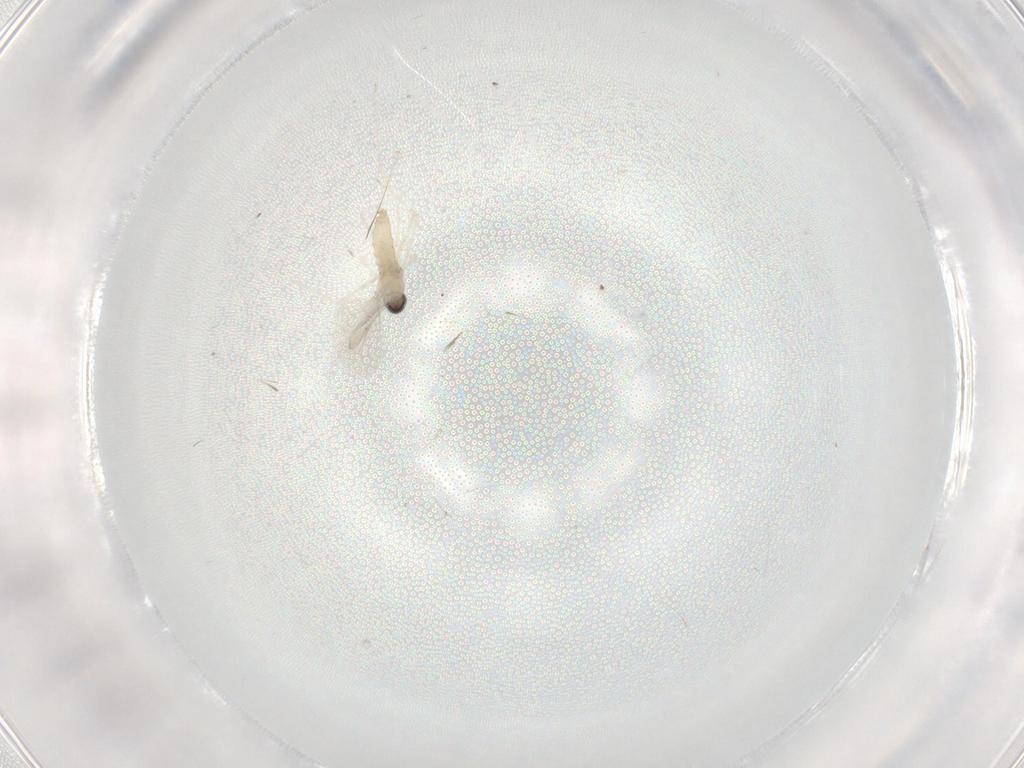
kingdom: Animalia
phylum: Arthropoda
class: Insecta
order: Diptera
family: Cecidomyiidae
